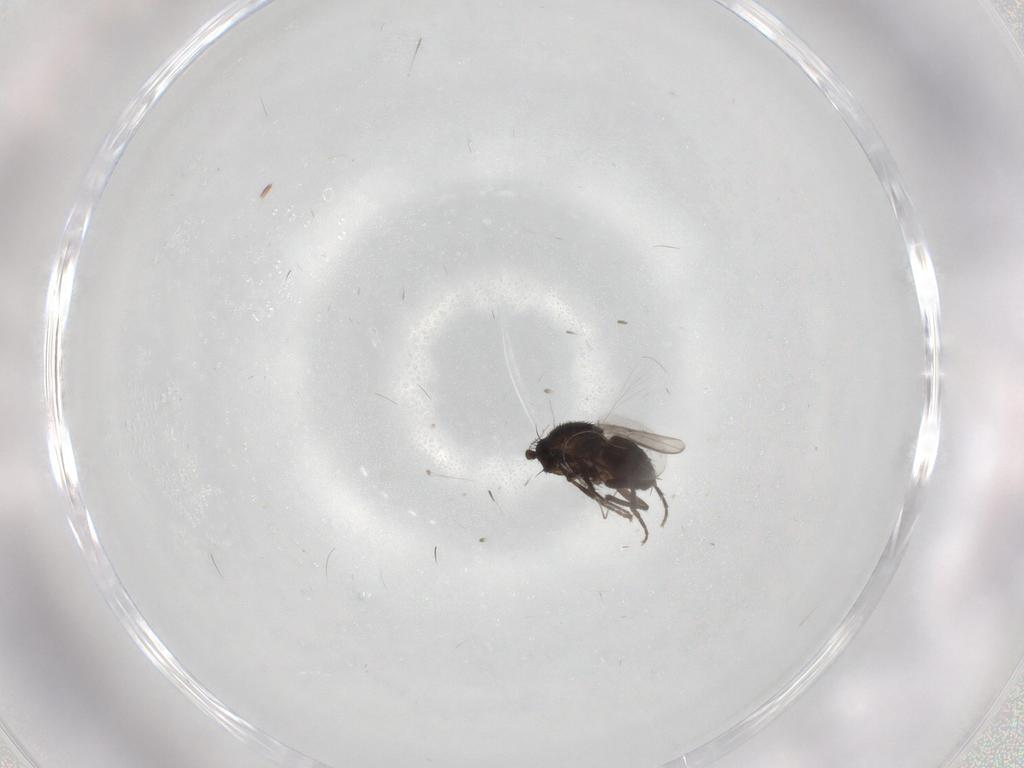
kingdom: Animalia
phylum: Arthropoda
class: Insecta
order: Diptera
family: Sphaeroceridae
